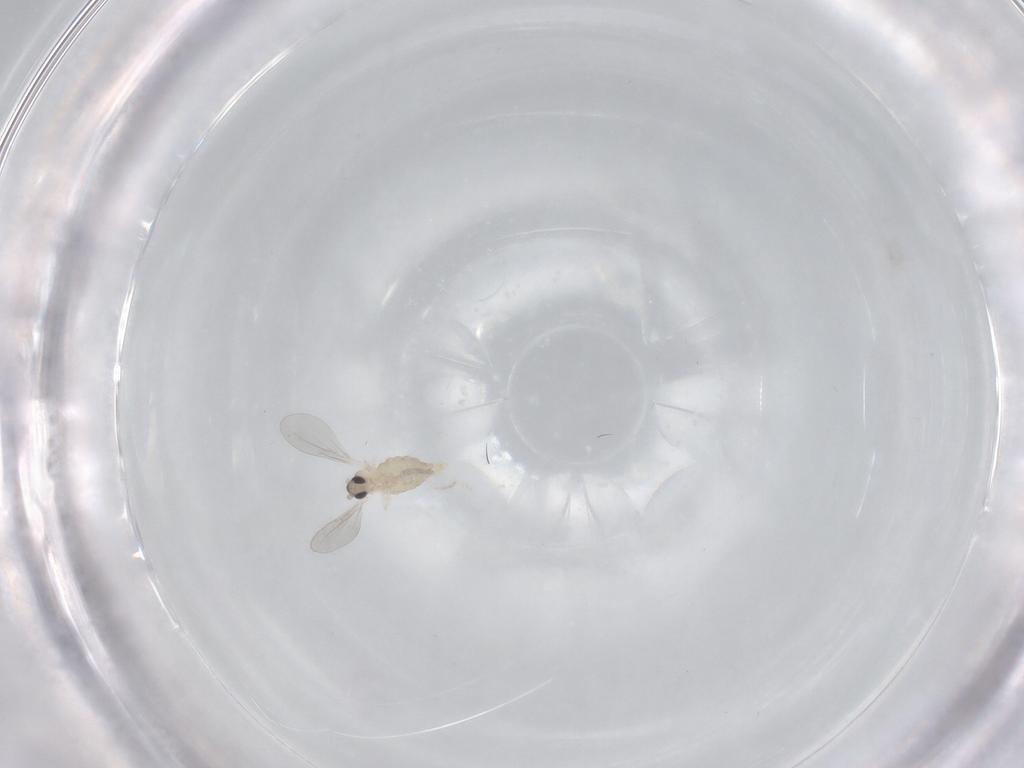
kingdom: Animalia
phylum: Arthropoda
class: Insecta
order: Diptera
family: Cecidomyiidae
